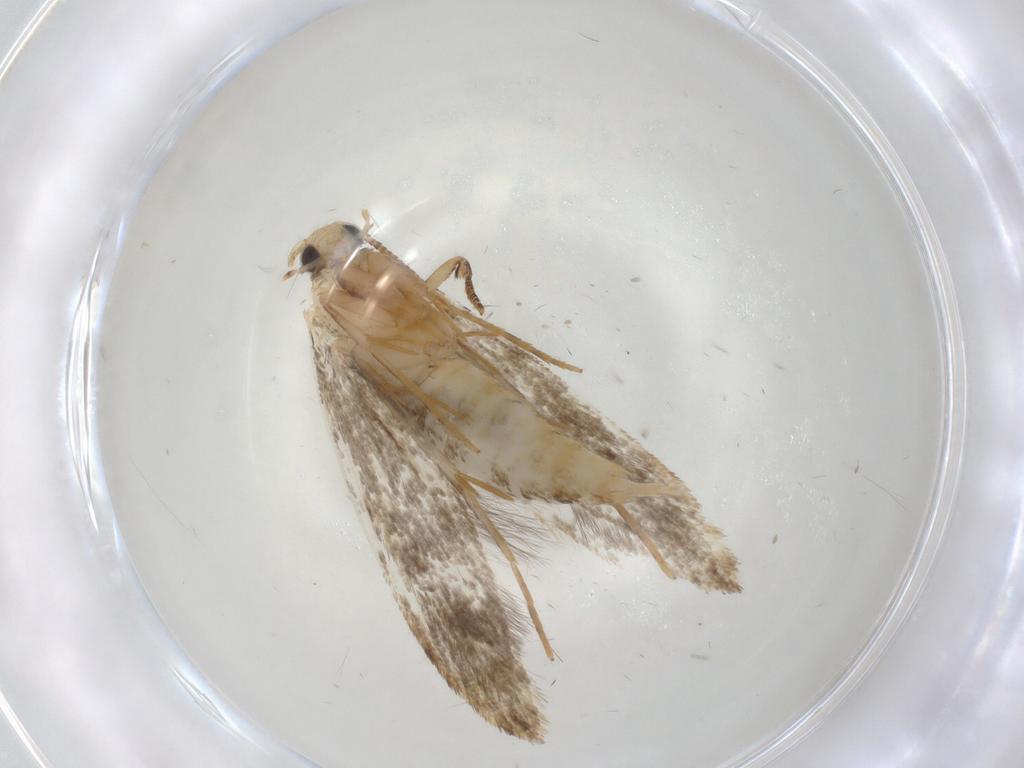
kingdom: Animalia
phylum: Arthropoda
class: Insecta
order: Lepidoptera
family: Tineidae
